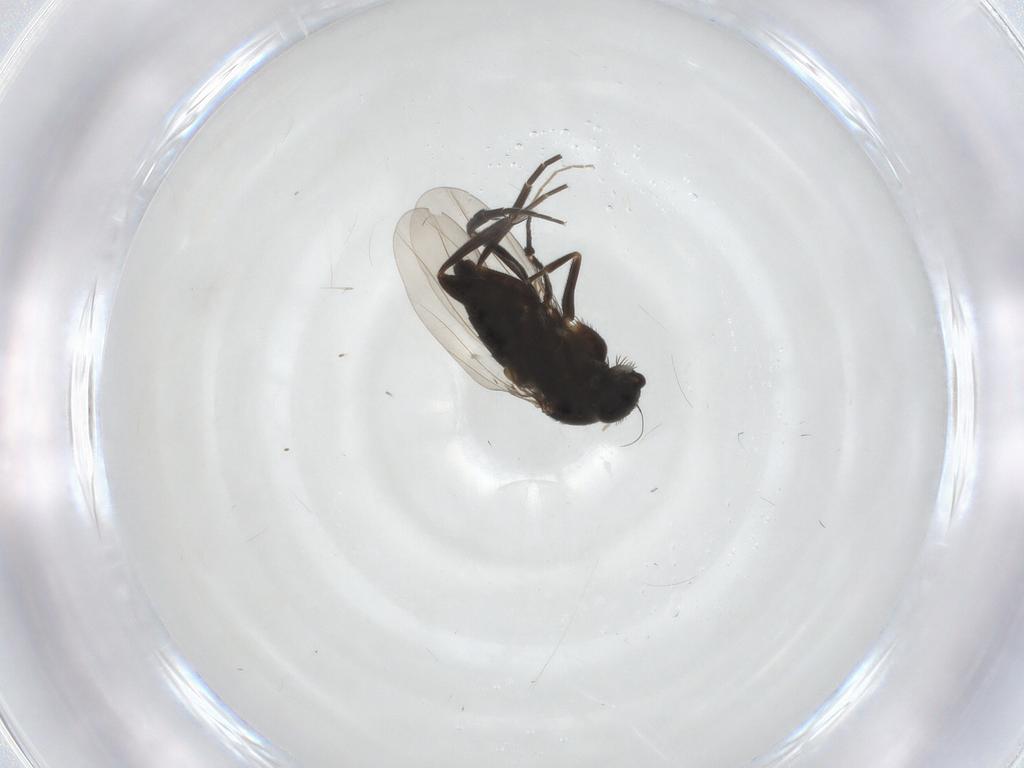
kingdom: Animalia
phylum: Arthropoda
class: Insecta
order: Diptera
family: Phoridae
